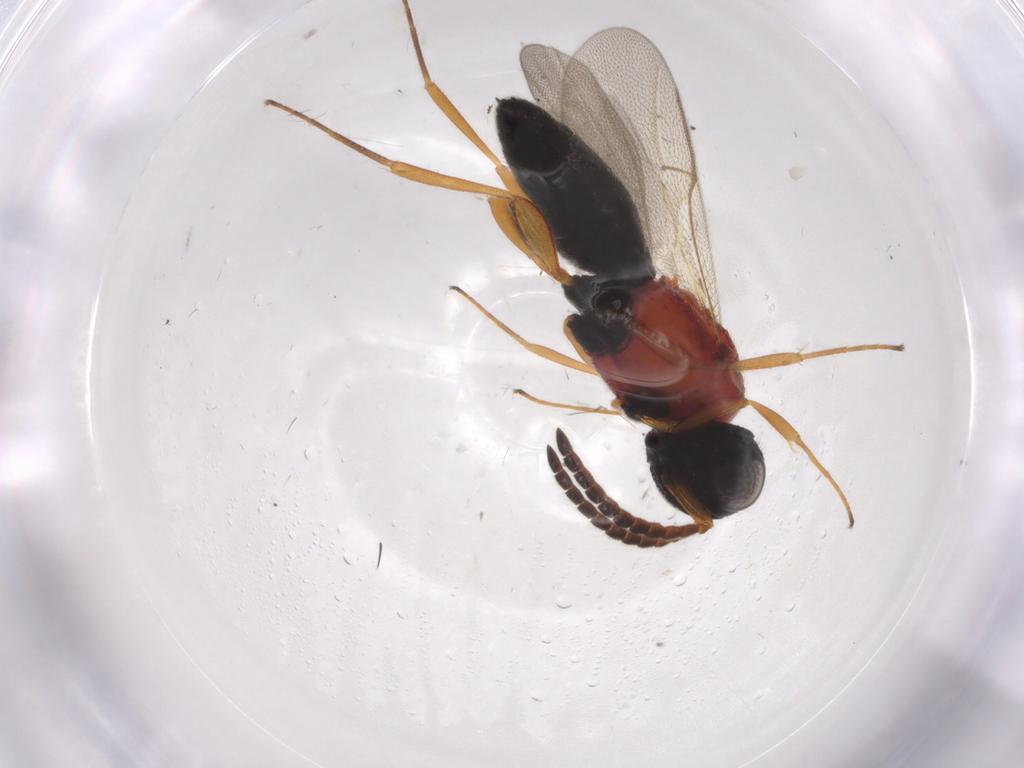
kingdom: Animalia
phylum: Arthropoda
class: Insecta
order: Hymenoptera
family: Scelionidae
